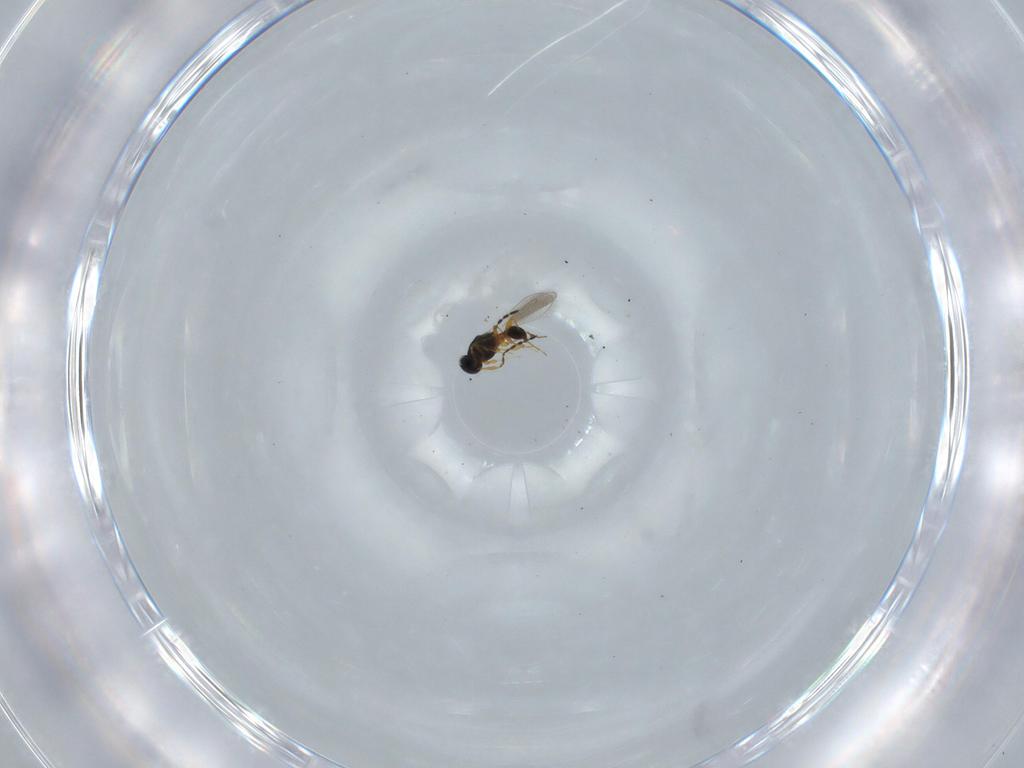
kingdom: Animalia
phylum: Arthropoda
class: Insecta
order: Hymenoptera
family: Platygastridae
